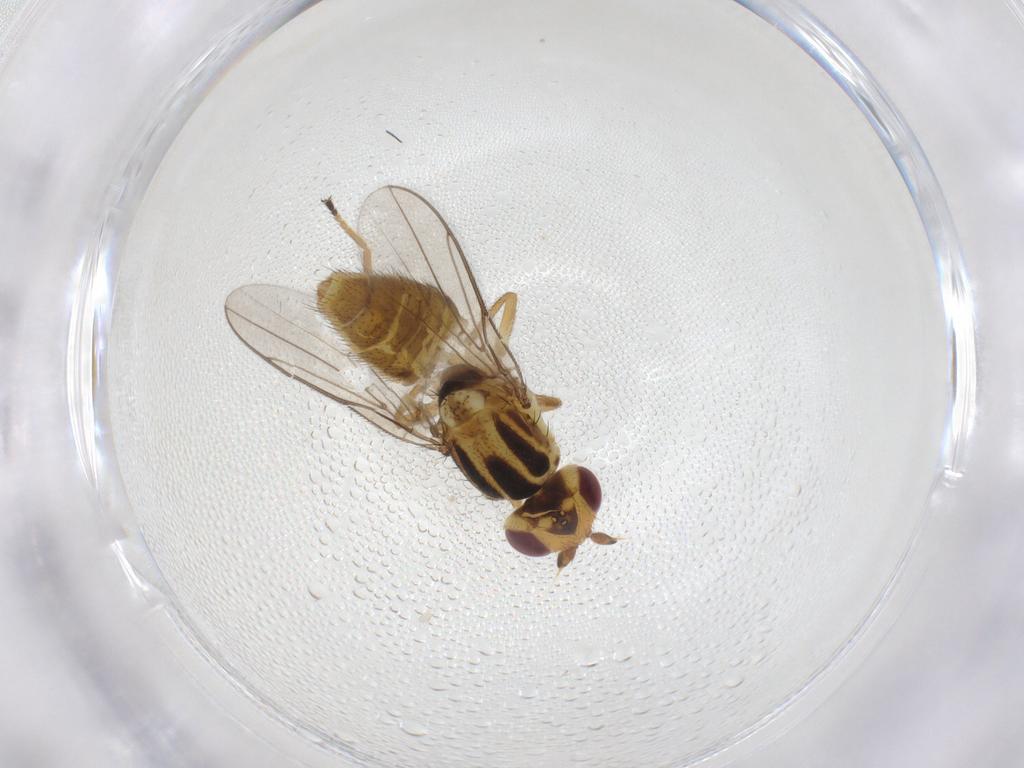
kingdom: Animalia
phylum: Arthropoda
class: Insecta
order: Diptera
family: Chloropidae
